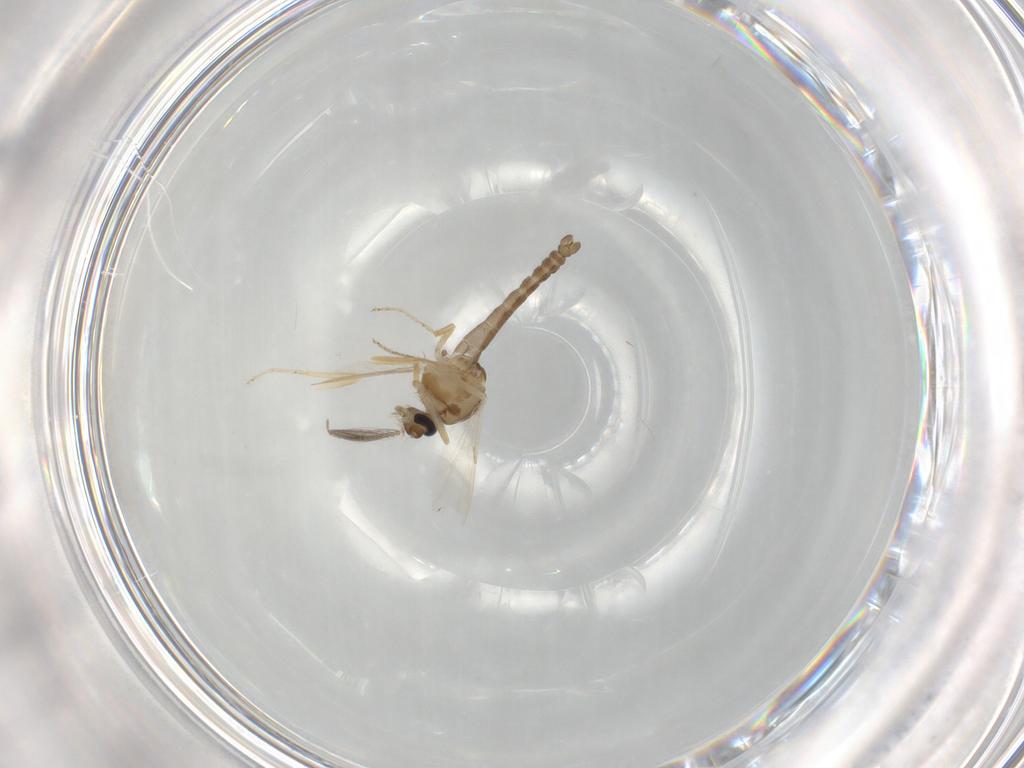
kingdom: Animalia
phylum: Arthropoda
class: Insecta
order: Diptera
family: Ceratopogonidae
